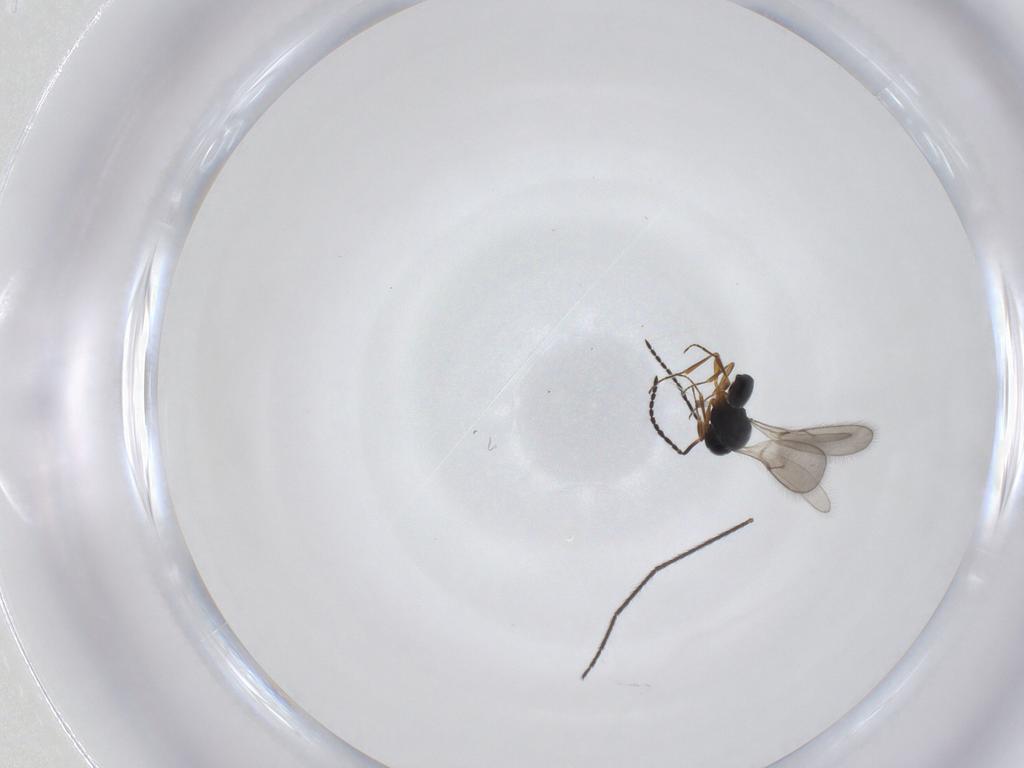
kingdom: Animalia
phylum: Arthropoda
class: Insecta
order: Hymenoptera
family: Scelionidae
